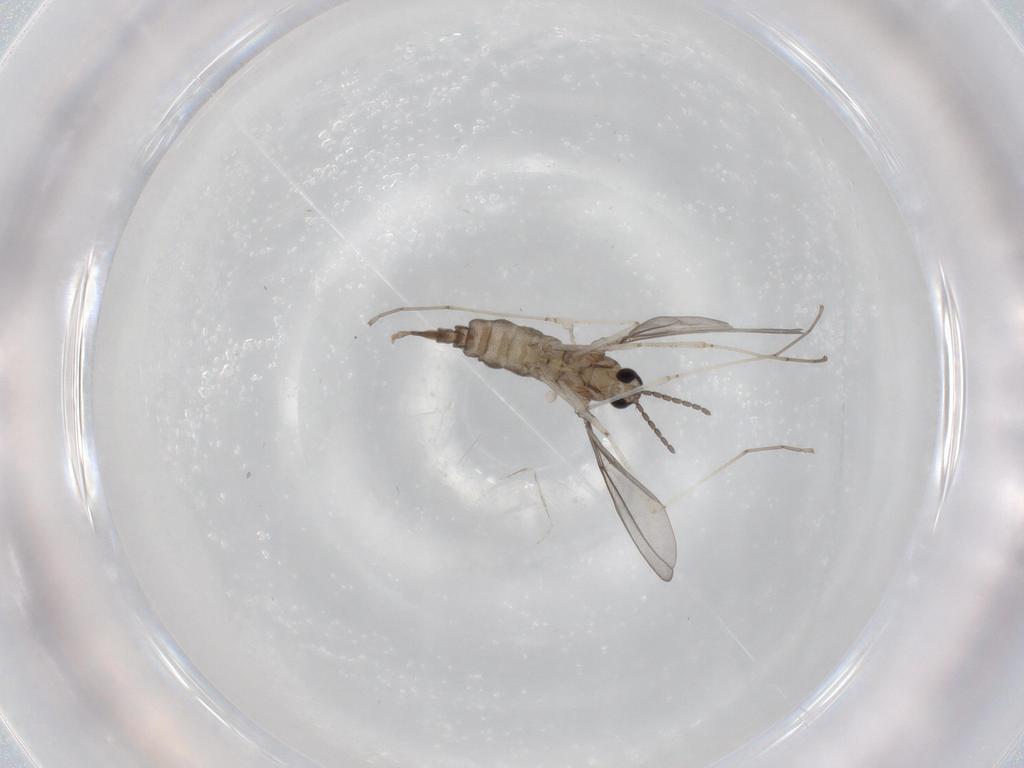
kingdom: Animalia
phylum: Arthropoda
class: Insecta
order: Diptera
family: Cecidomyiidae
